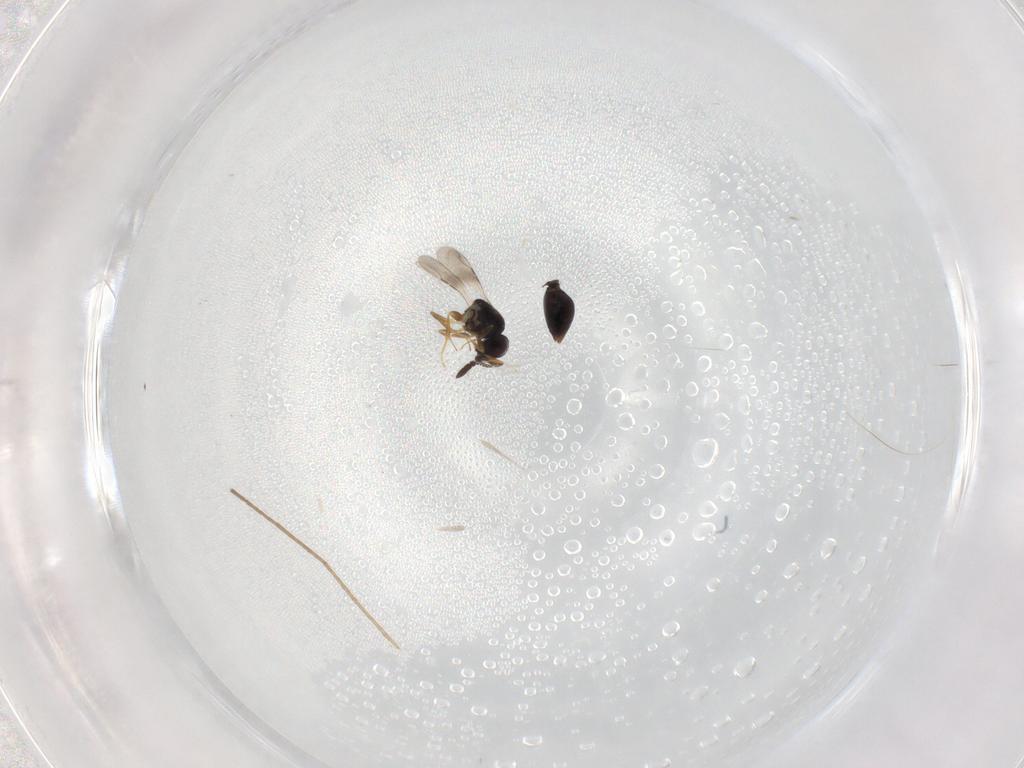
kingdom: Animalia
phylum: Arthropoda
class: Insecta
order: Hymenoptera
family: Ceraphronidae
